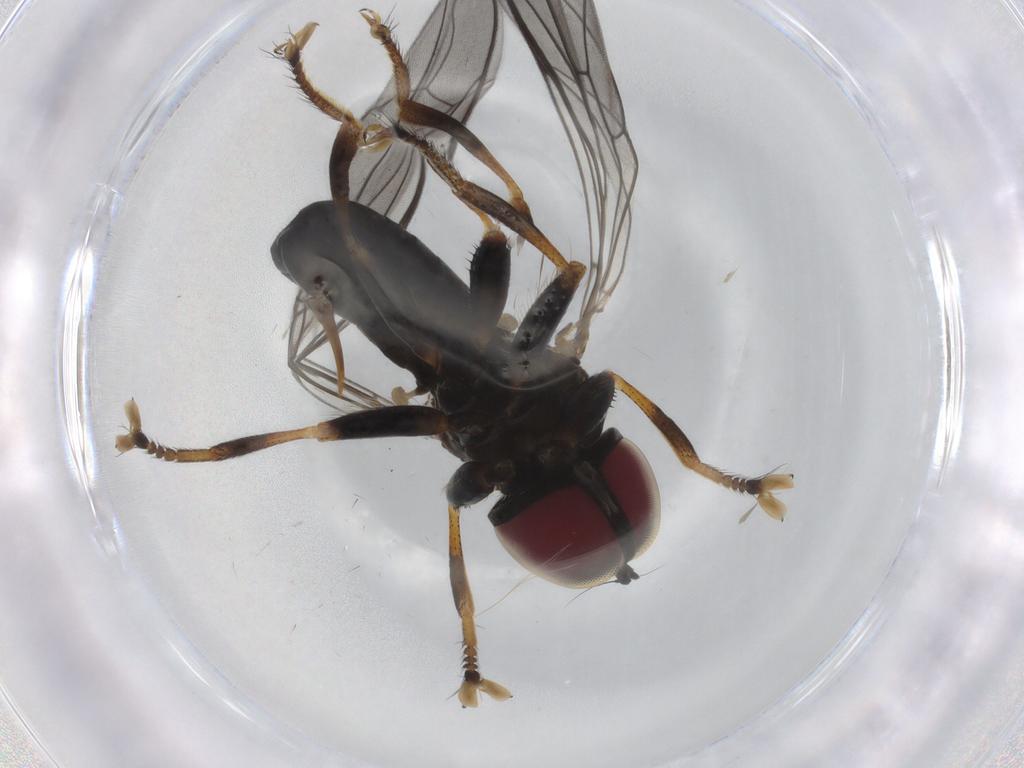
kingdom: Animalia
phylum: Arthropoda
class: Insecta
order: Diptera
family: Pipunculidae
